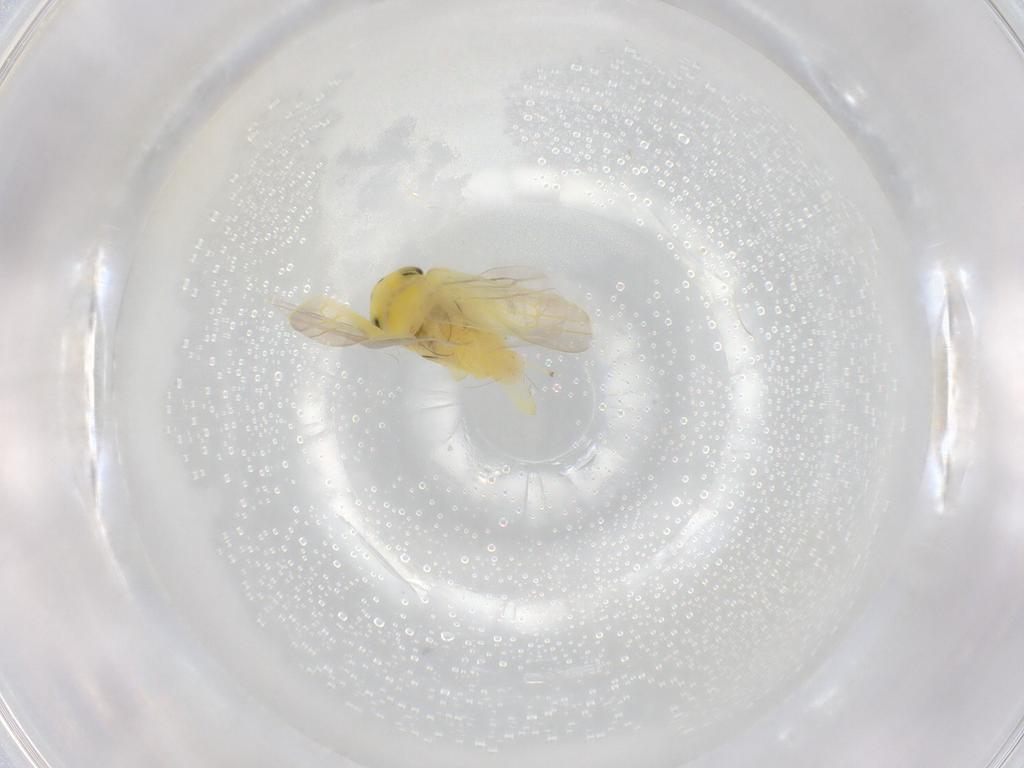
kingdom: Animalia
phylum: Arthropoda
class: Insecta
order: Hemiptera
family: Cicadellidae
